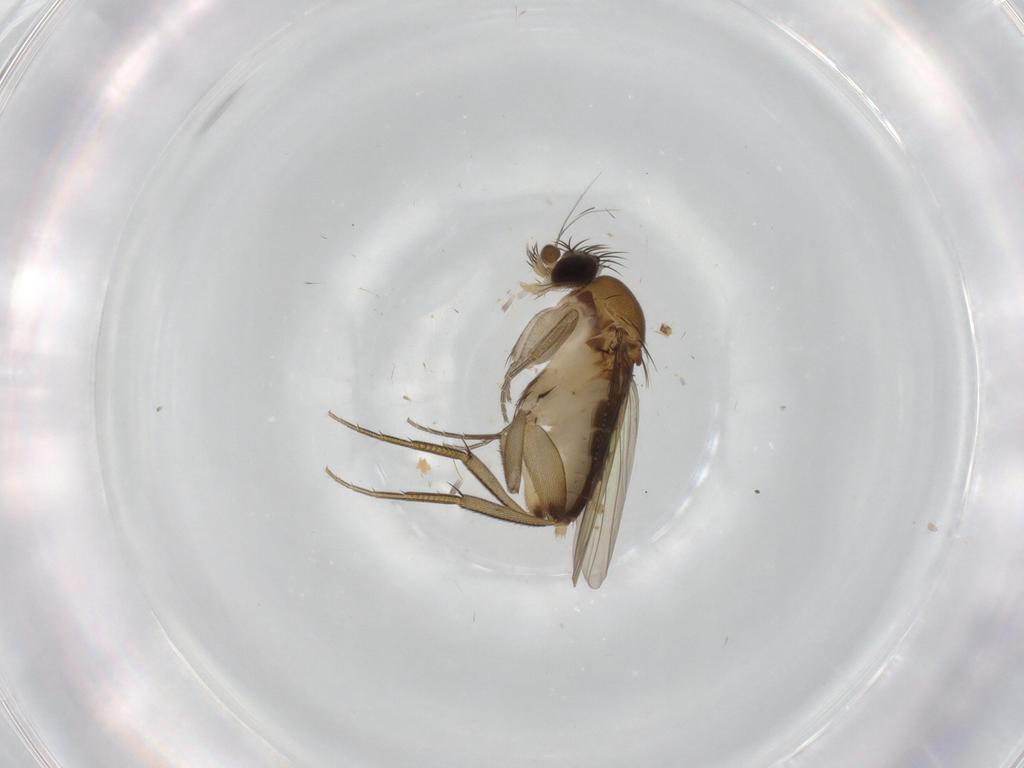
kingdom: Animalia
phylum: Arthropoda
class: Insecta
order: Diptera
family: Phoridae
